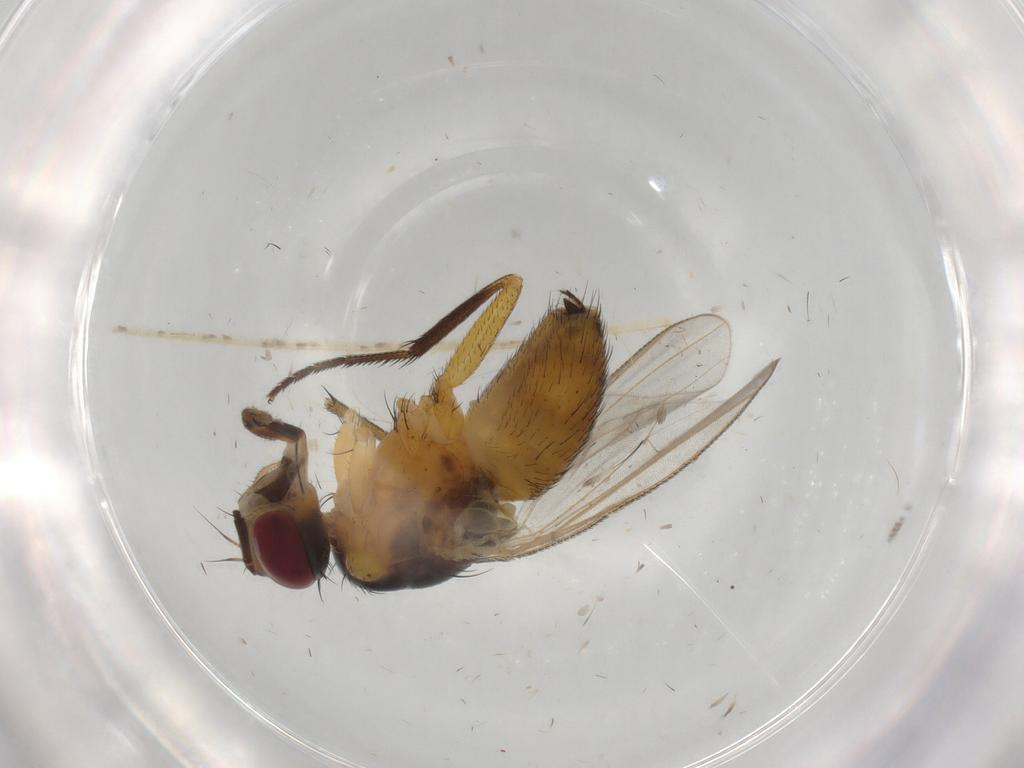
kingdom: Animalia
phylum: Arthropoda
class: Insecta
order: Diptera
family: Muscidae
